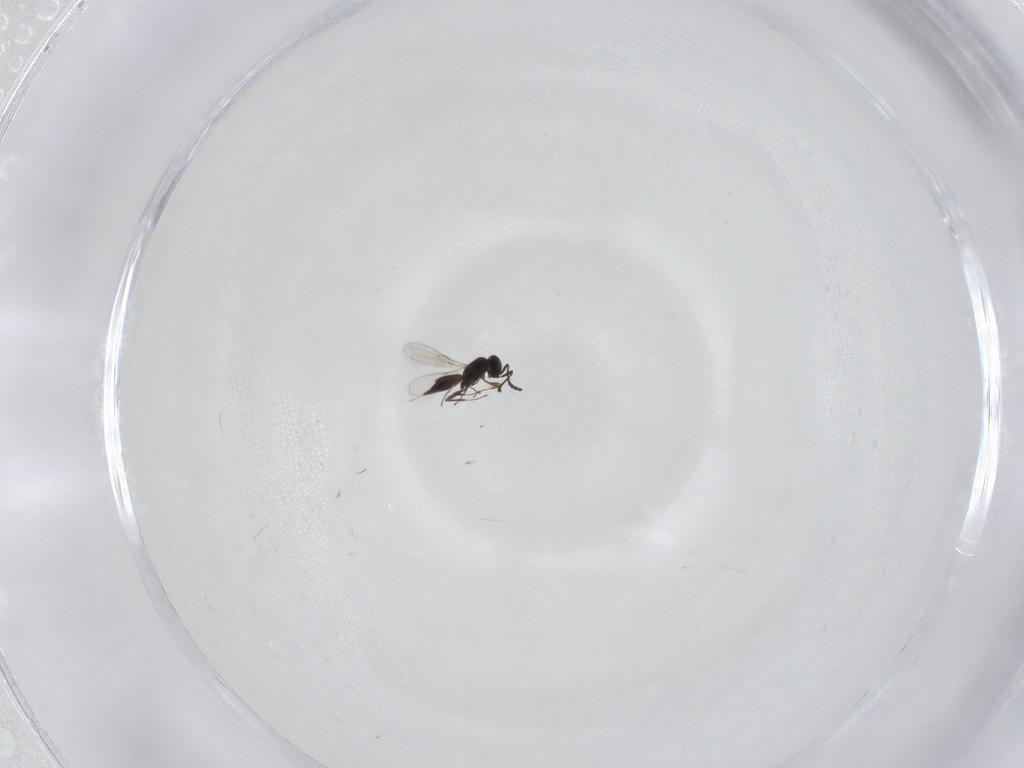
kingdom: Animalia
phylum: Arthropoda
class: Insecta
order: Hymenoptera
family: Scelionidae
